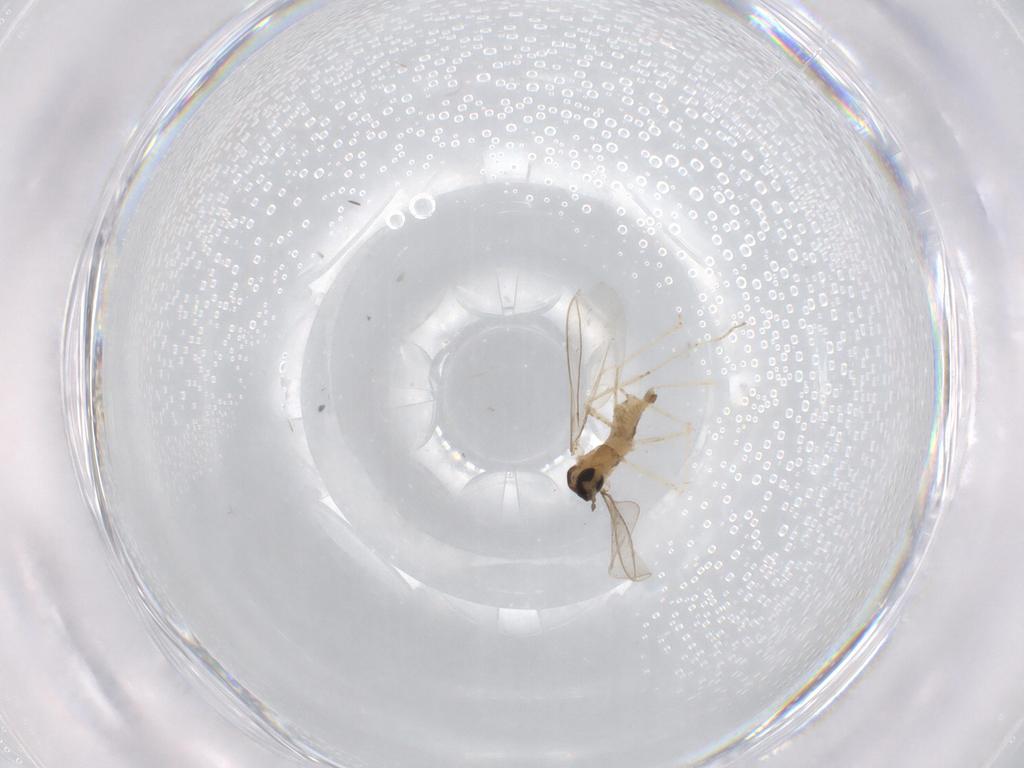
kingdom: Animalia
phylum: Arthropoda
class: Insecta
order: Diptera
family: Cecidomyiidae
